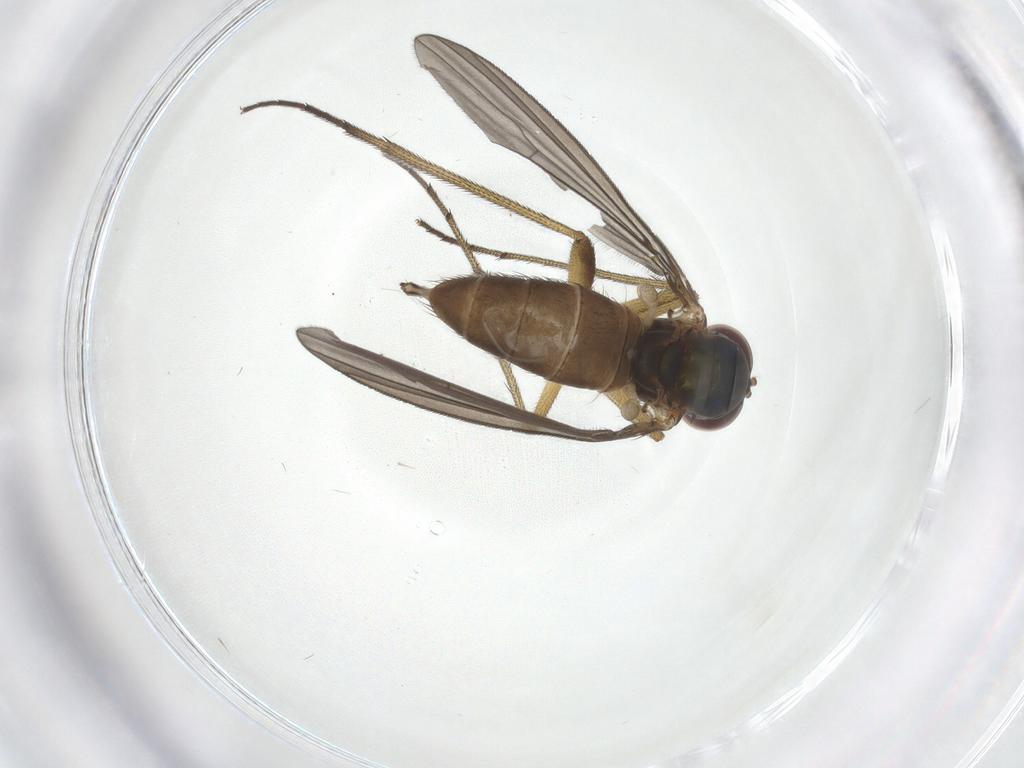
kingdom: Animalia
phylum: Arthropoda
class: Insecta
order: Diptera
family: Dolichopodidae
